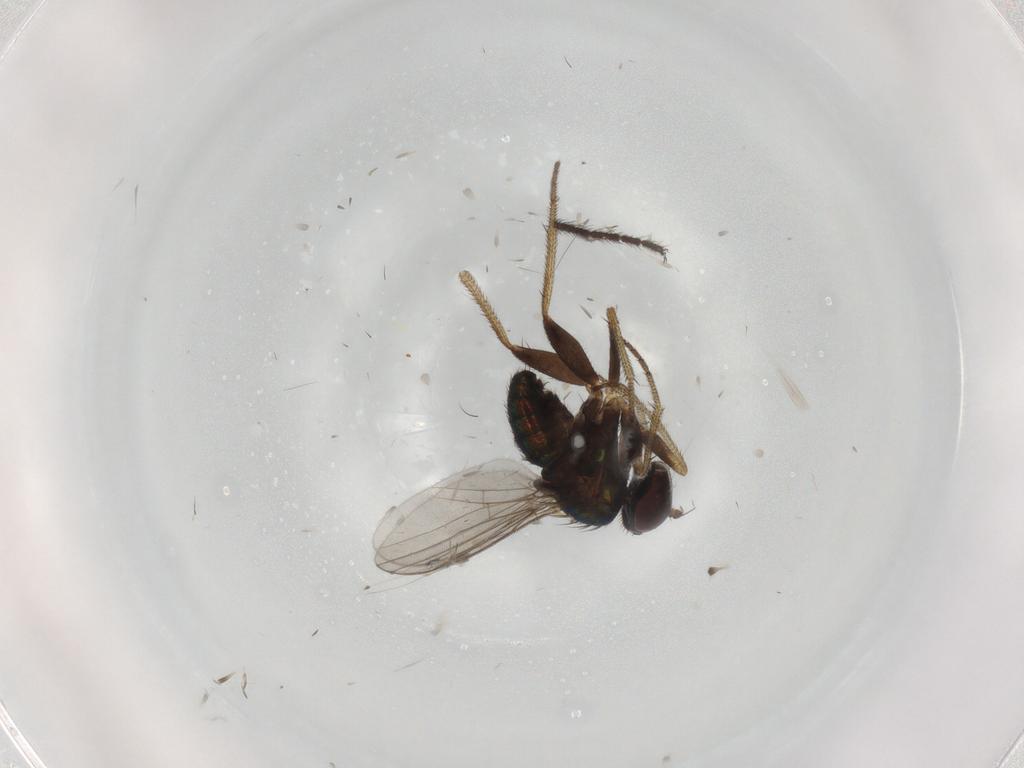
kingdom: Animalia
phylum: Arthropoda
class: Insecta
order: Diptera
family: Limoniidae
